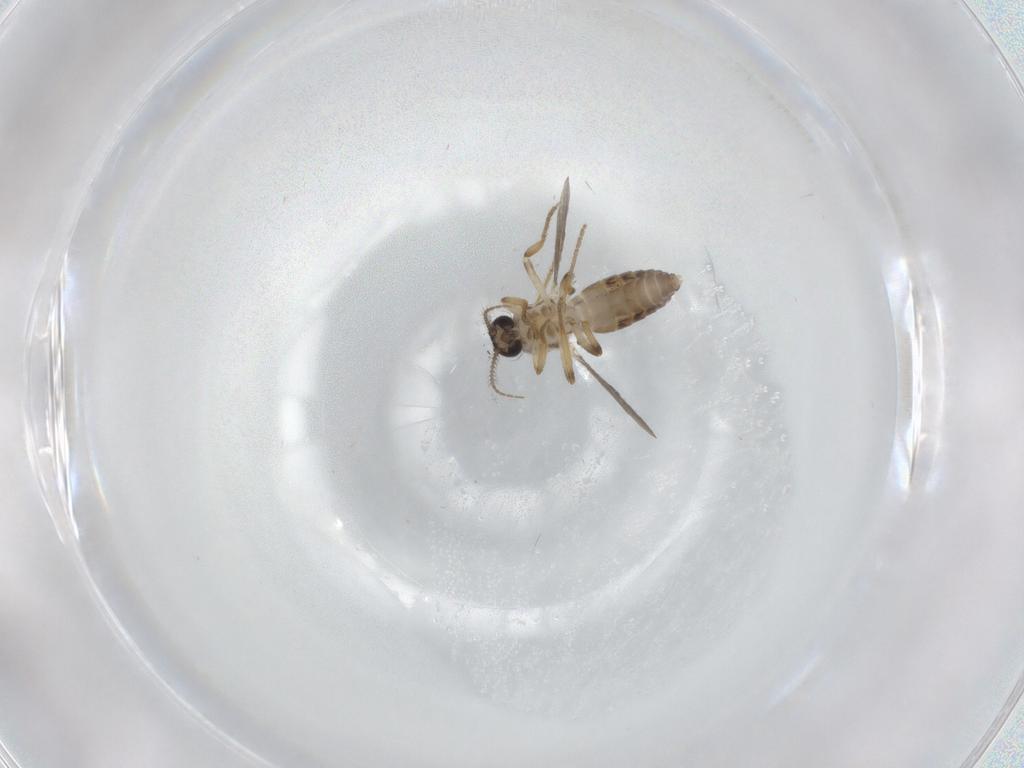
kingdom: Animalia
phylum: Arthropoda
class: Insecta
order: Diptera
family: Ceratopogonidae
